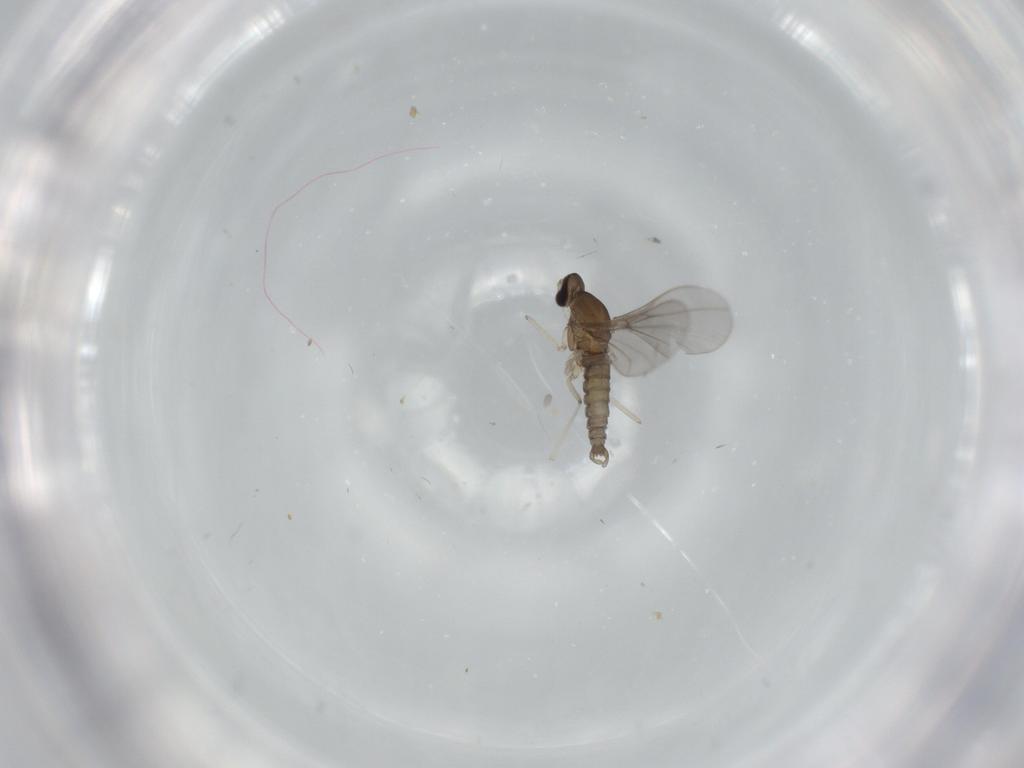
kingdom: Animalia
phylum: Arthropoda
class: Insecta
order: Diptera
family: Cecidomyiidae
